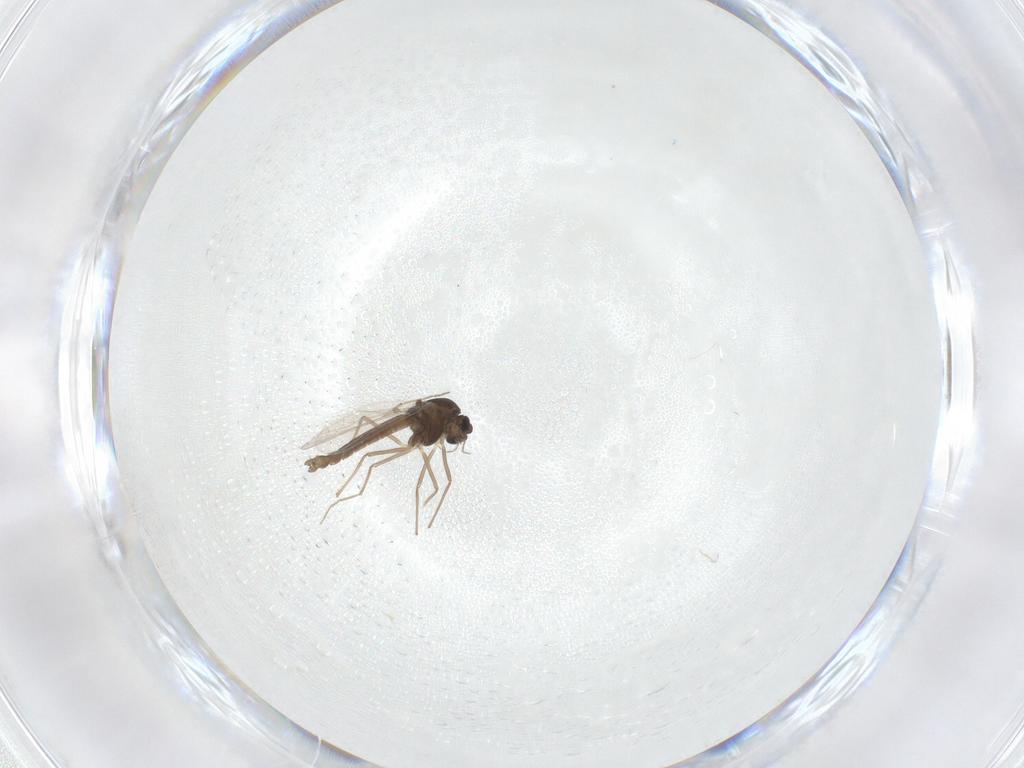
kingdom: Animalia
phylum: Arthropoda
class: Insecta
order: Diptera
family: Chironomidae
